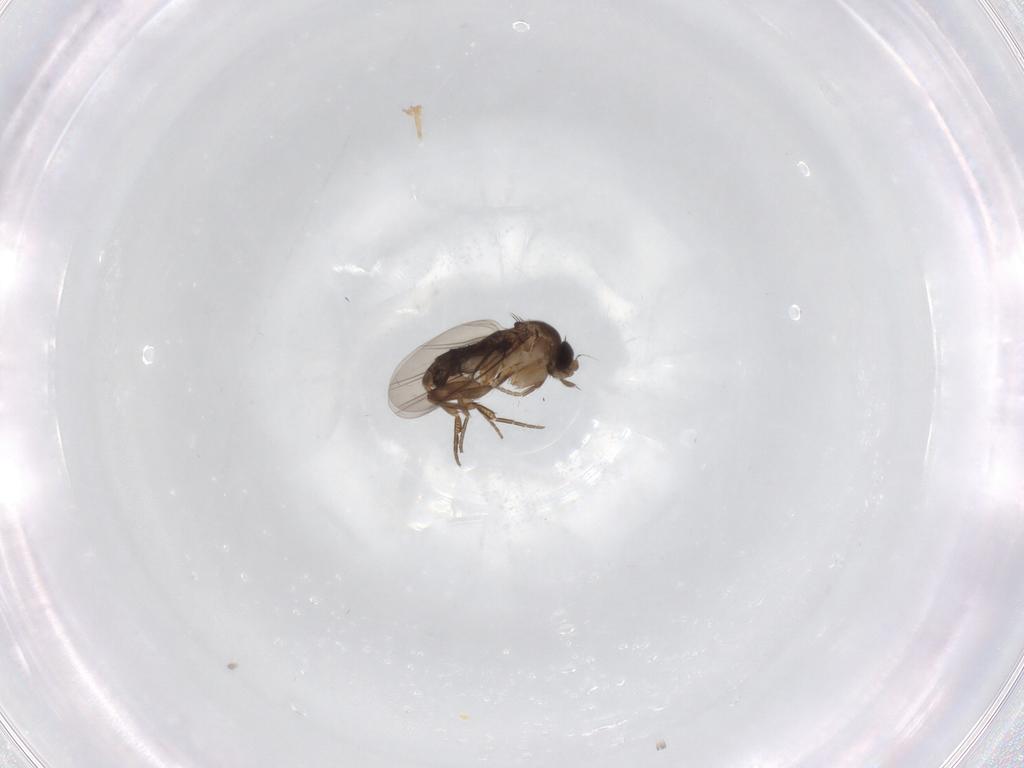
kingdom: Animalia
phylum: Arthropoda
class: Insecta
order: Diptera
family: Phoridae
